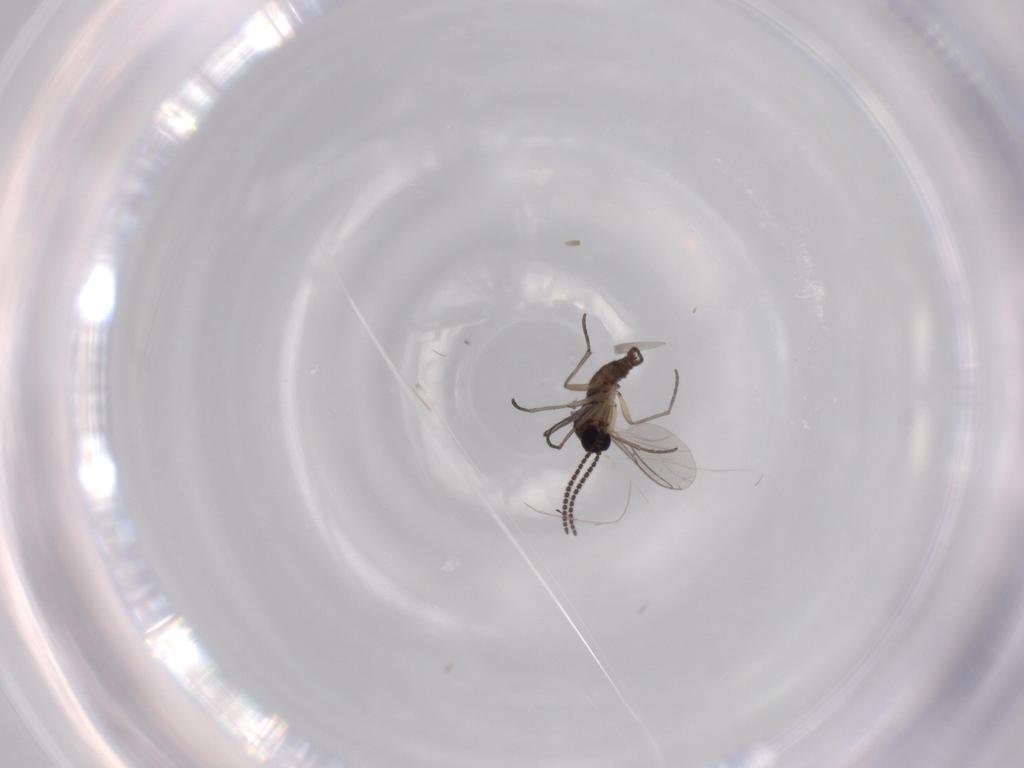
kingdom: Animalia
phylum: Arthropoda
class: Insecta
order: Diptera
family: Sciaridae
